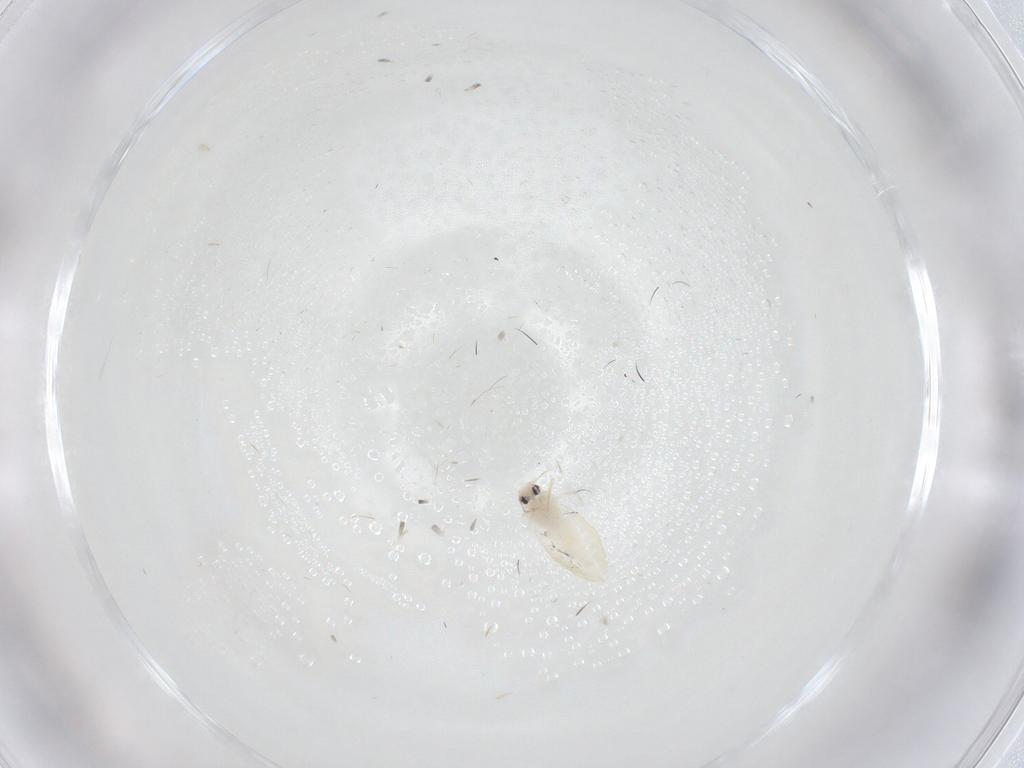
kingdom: Animalia
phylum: Arthropoda
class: Insecta
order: Hemiptera
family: Aleyrodidae
